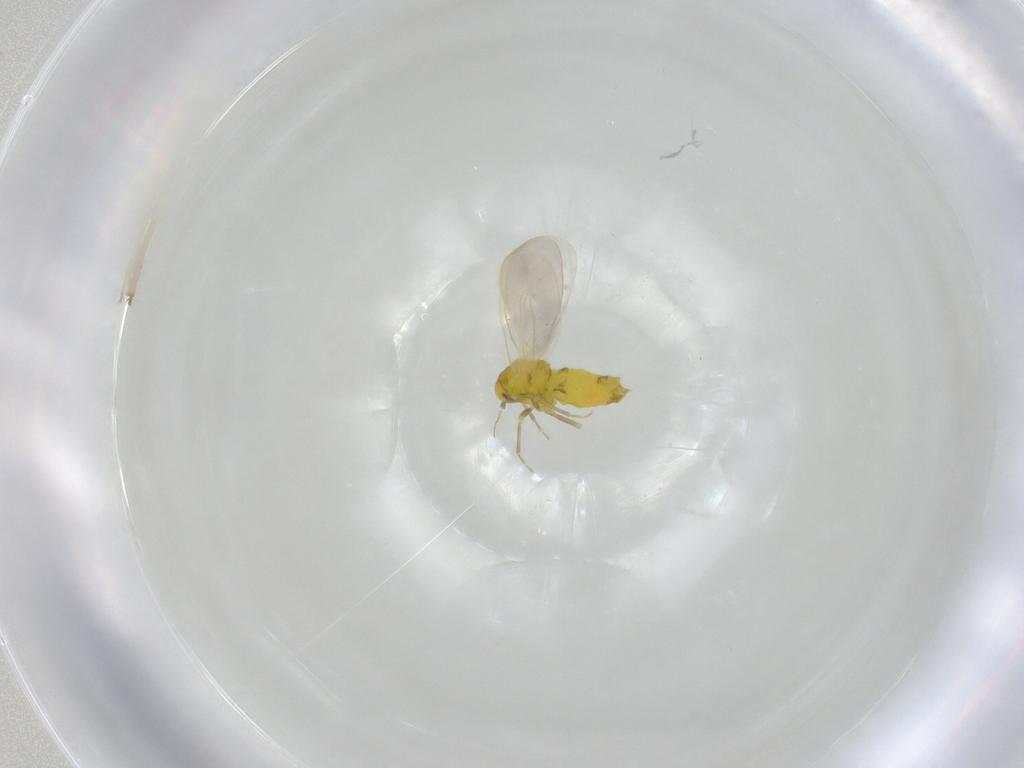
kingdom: Animalia
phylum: Arthropoda
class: Insecta
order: Hemiptera
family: Aleyrodidae
